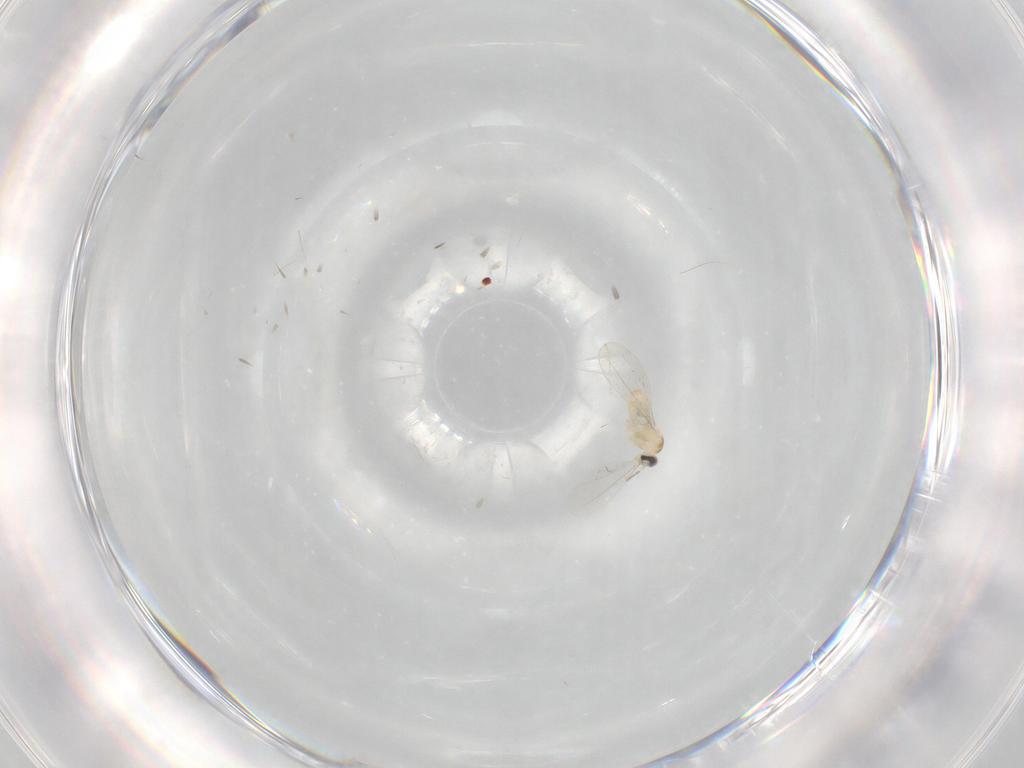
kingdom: Animalia
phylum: Arthropoda
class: Insecta
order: Diptera
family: Cecidomyiidae
